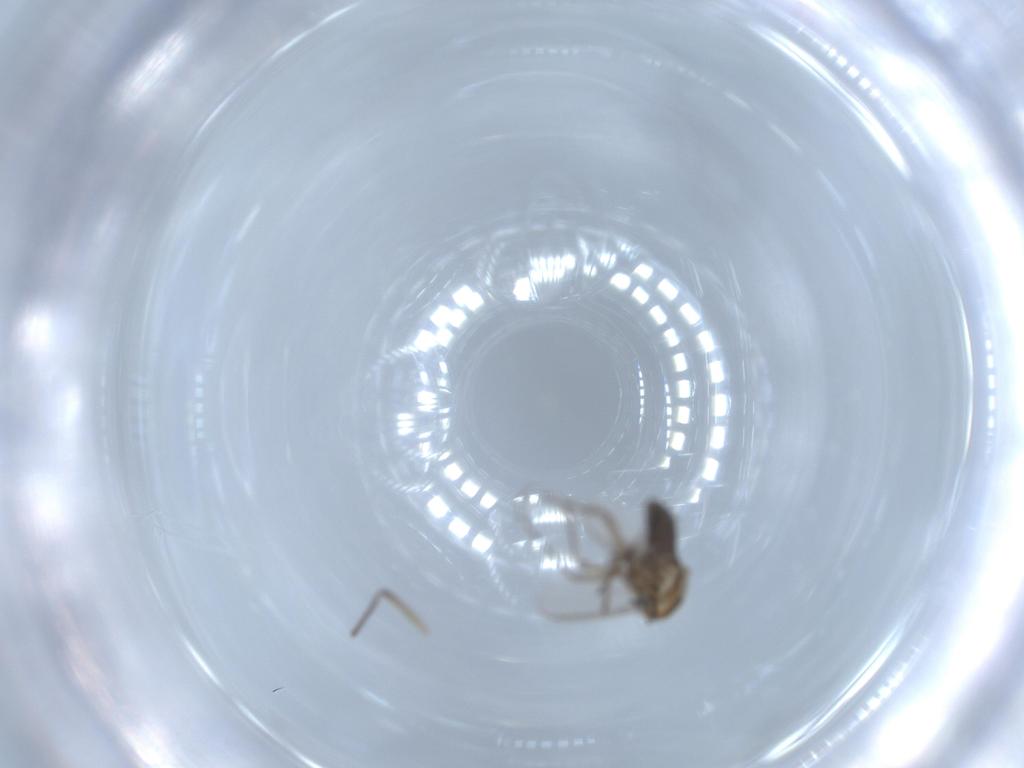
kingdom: Animalia
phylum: Arthropoda
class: Insecta
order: Diptera
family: Chironomidae
